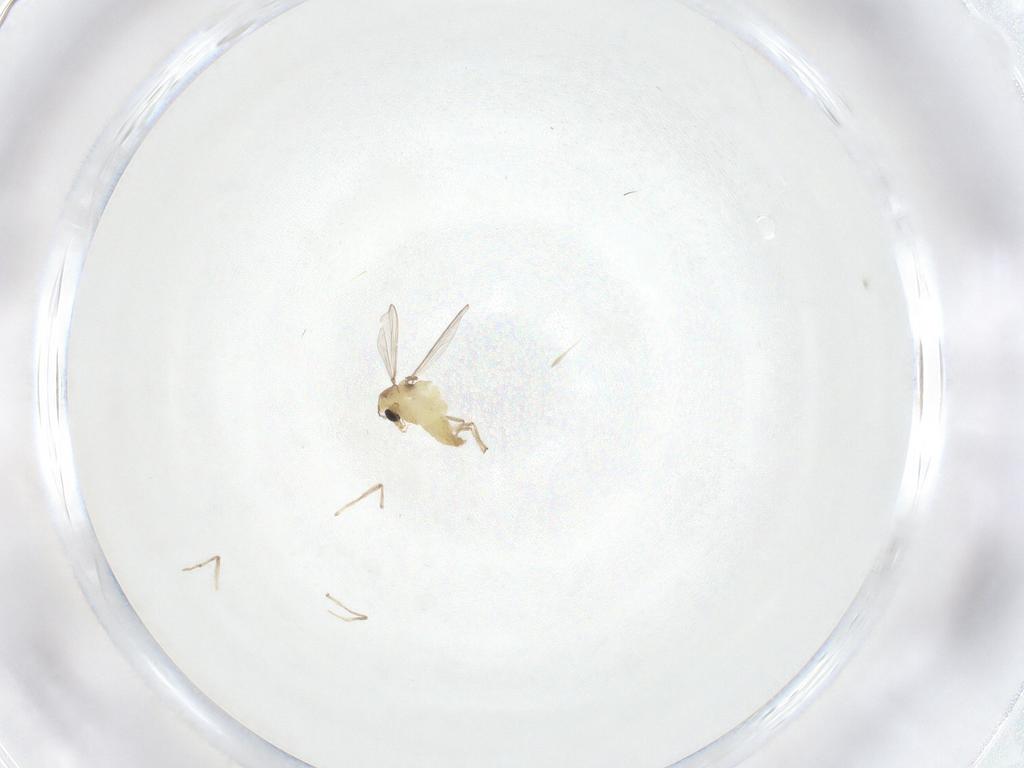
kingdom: Animalia
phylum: Arthropoda
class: Insecta
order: Diptera
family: Chironomidae
